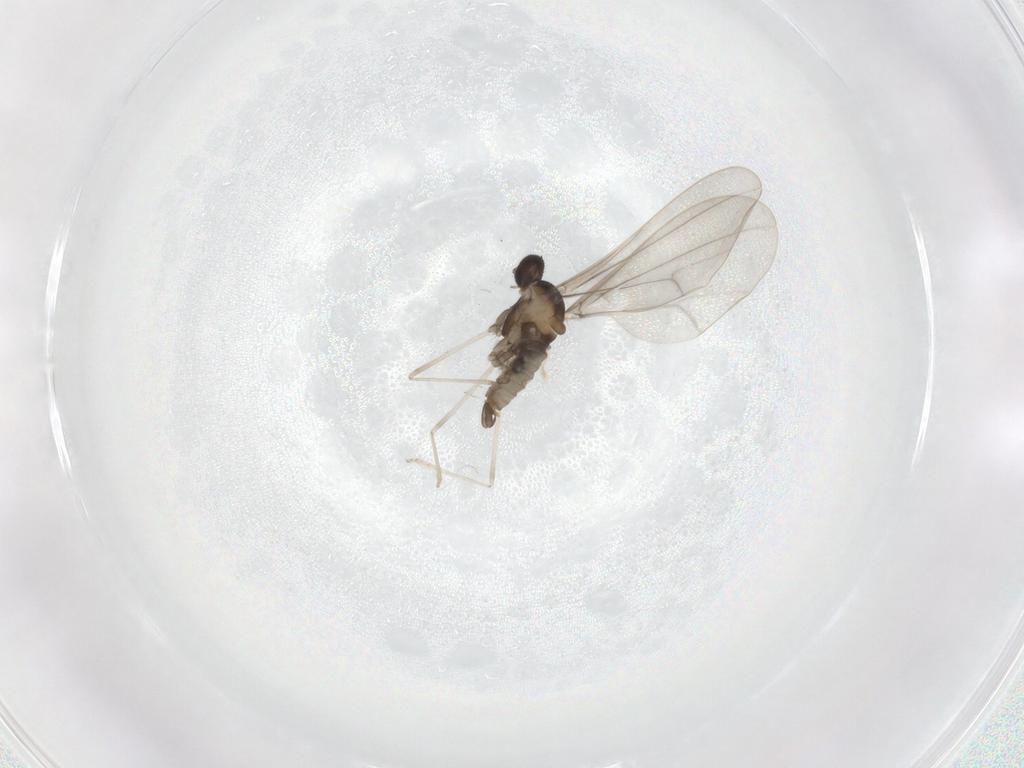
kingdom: Animalia
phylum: Arthropoda
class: Insecta
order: Diptera
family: Cecidomyiidae
